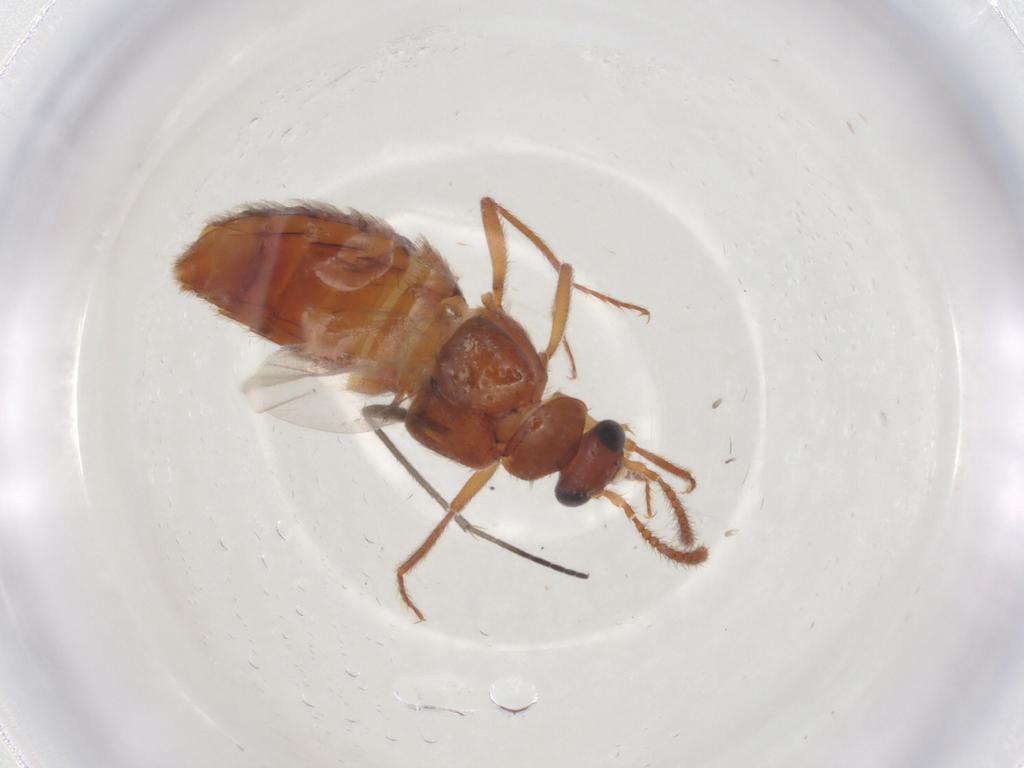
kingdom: Animalia
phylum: Arthropoda
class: Insecta
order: Coleoptera
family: Staphylinidae
